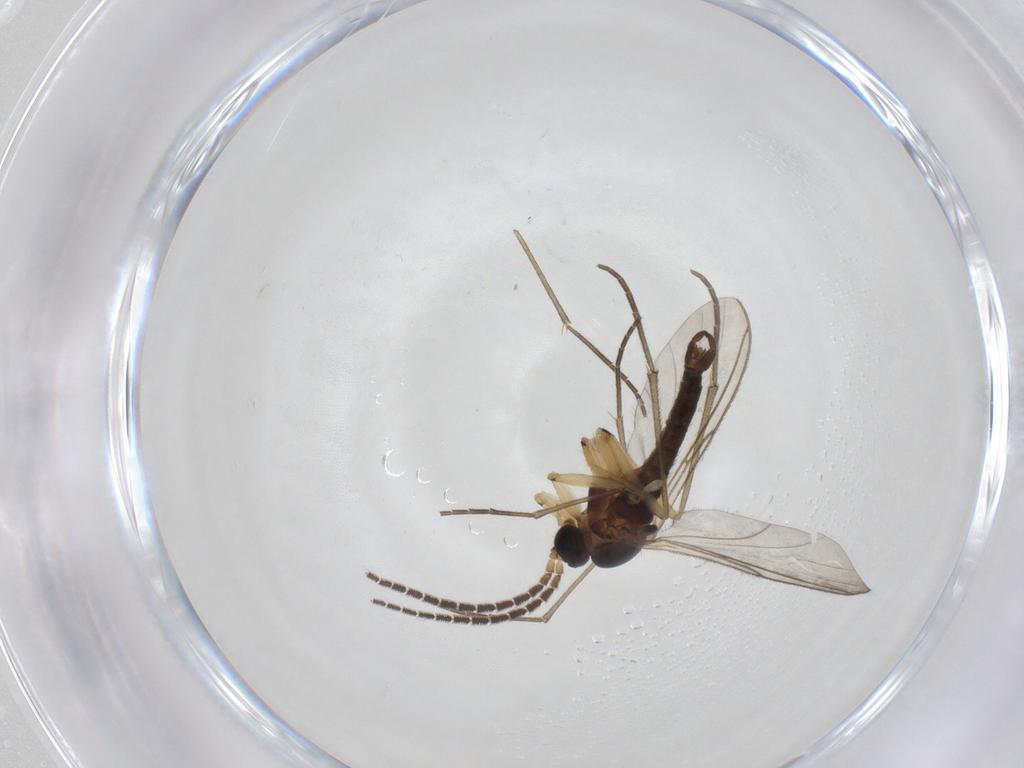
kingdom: Animalia
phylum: Arthropoda
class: Insecta
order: Diptera
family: Sciaridae
